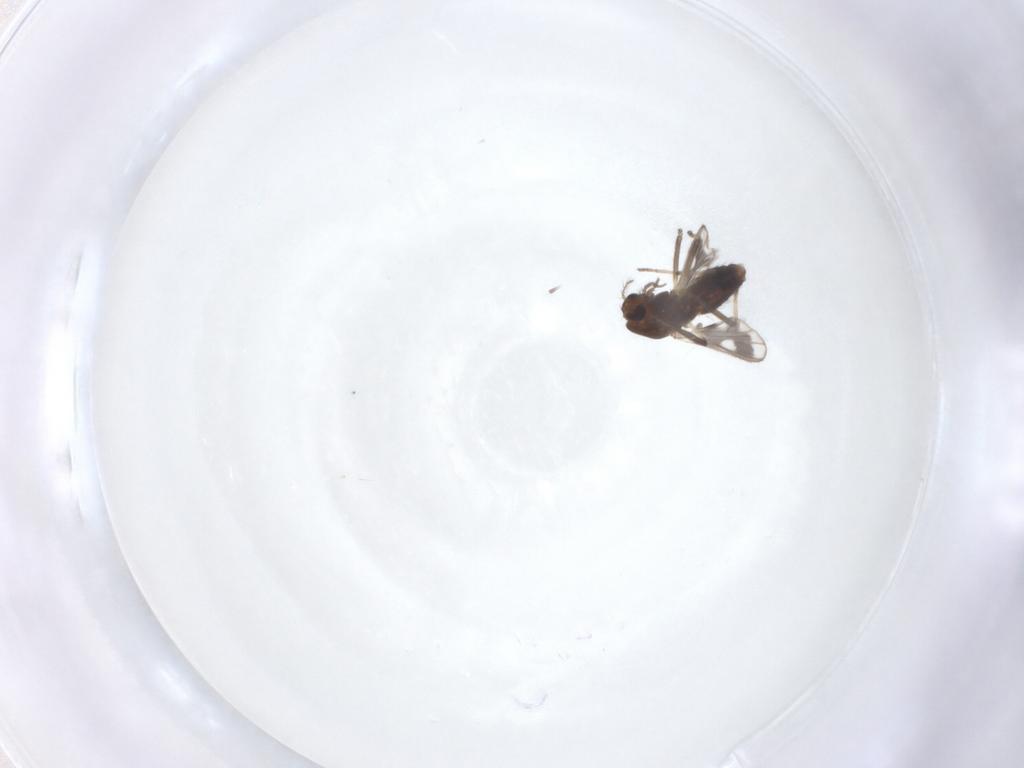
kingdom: Animalia
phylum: Arthropoda
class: Insecta
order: Diptera
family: Chironomidae
